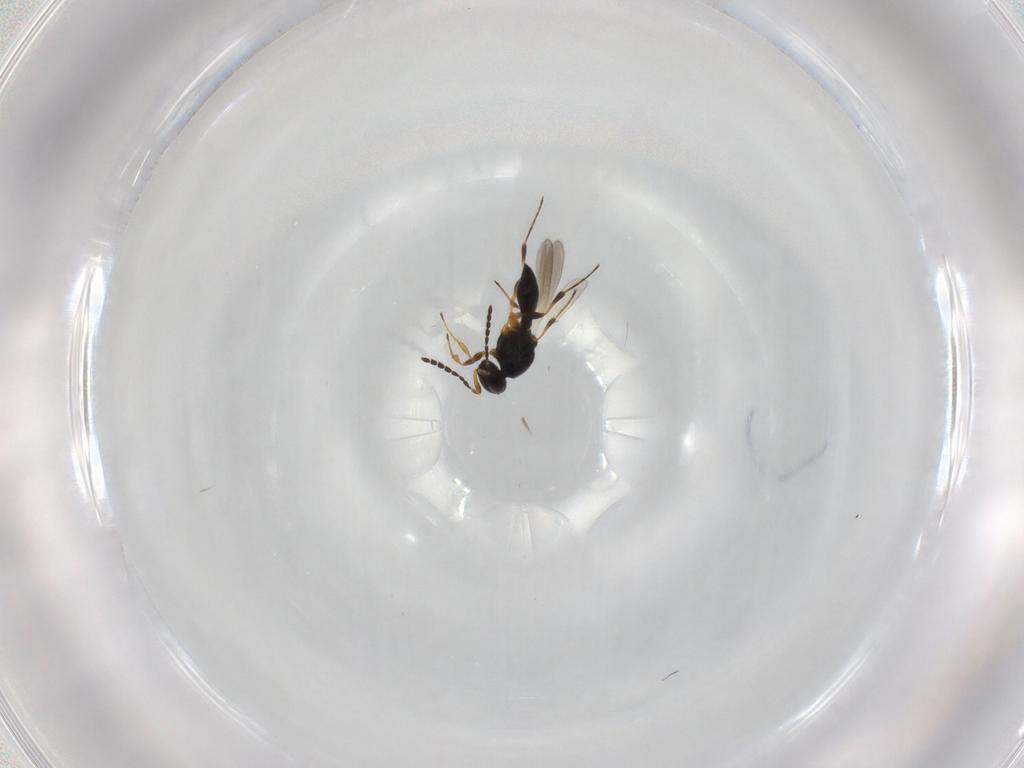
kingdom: Animalia
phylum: Arthropoda
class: Insecta
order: Hymenoptera
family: Platygastridae
